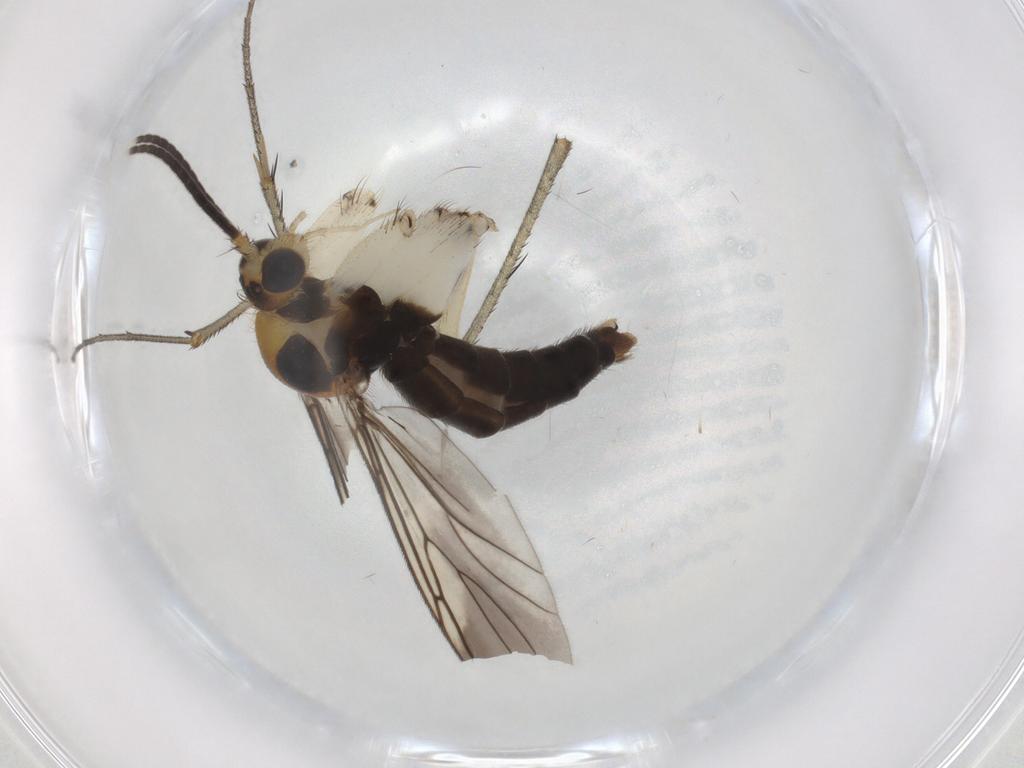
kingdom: Animalia
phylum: Arthropoda
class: Insecta
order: Diptera
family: Cecidomyiidae
